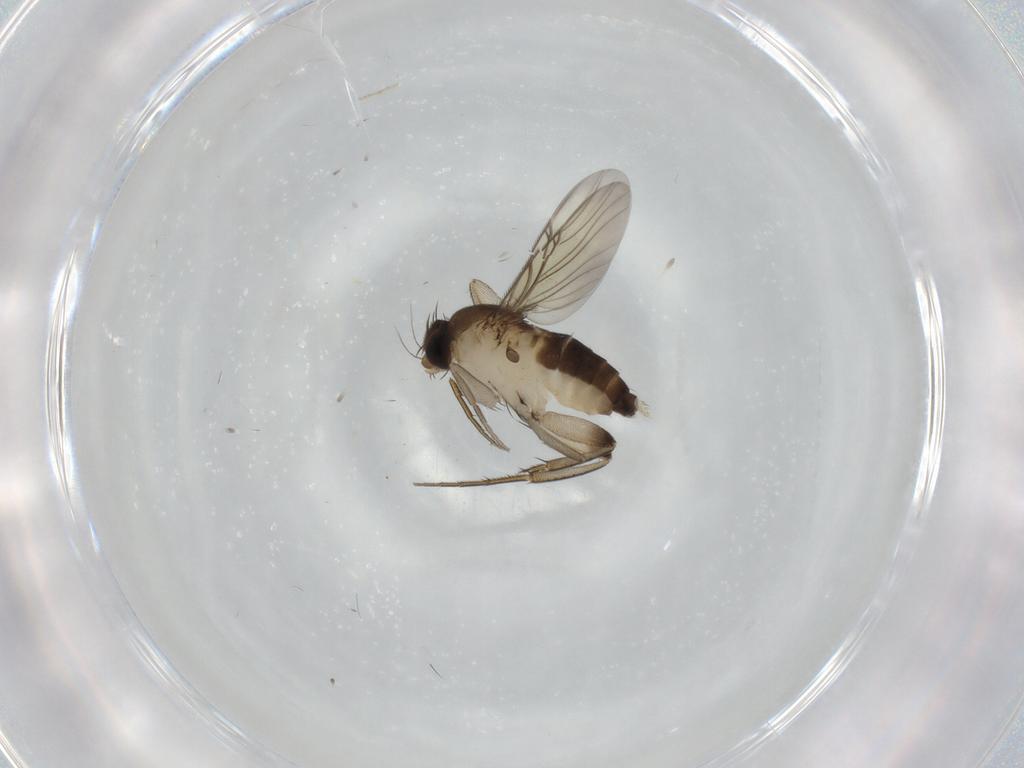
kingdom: Animalia
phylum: Arthropoda
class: Insecta
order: Diptera
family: Phoridae
